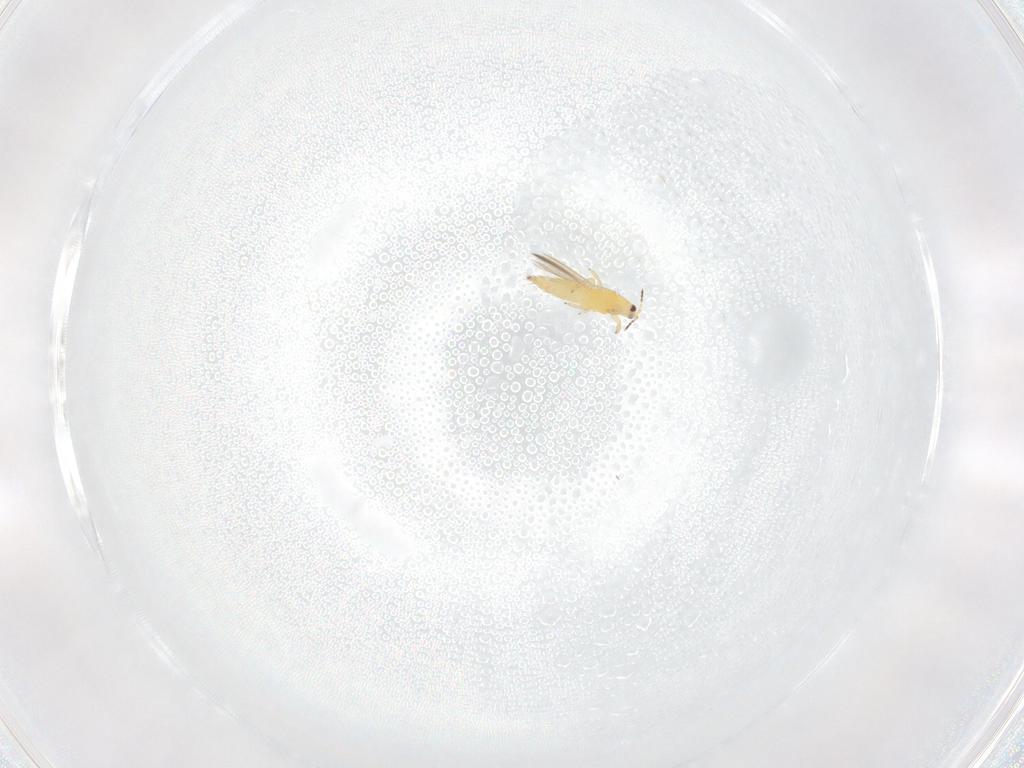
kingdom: Animalia
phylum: Arthropoda
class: Insecta
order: Thysanoptera
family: Thripidae
